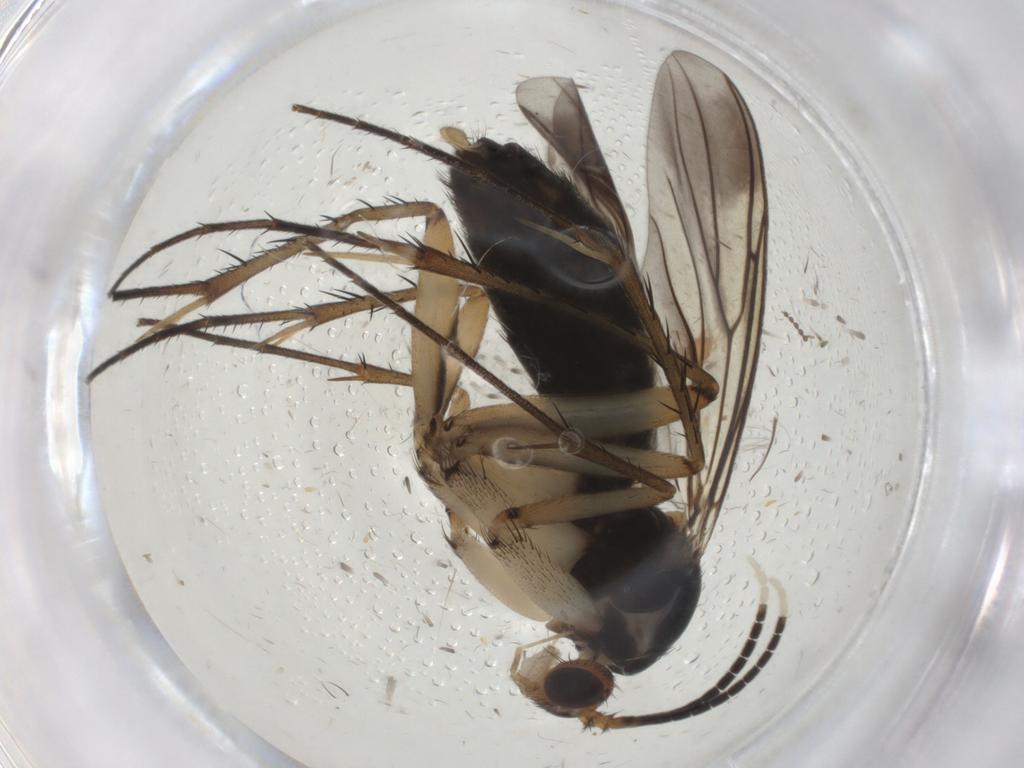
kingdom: Animalia
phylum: Arthropoda
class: Insecta
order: Diptera
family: Mycetophilidae
